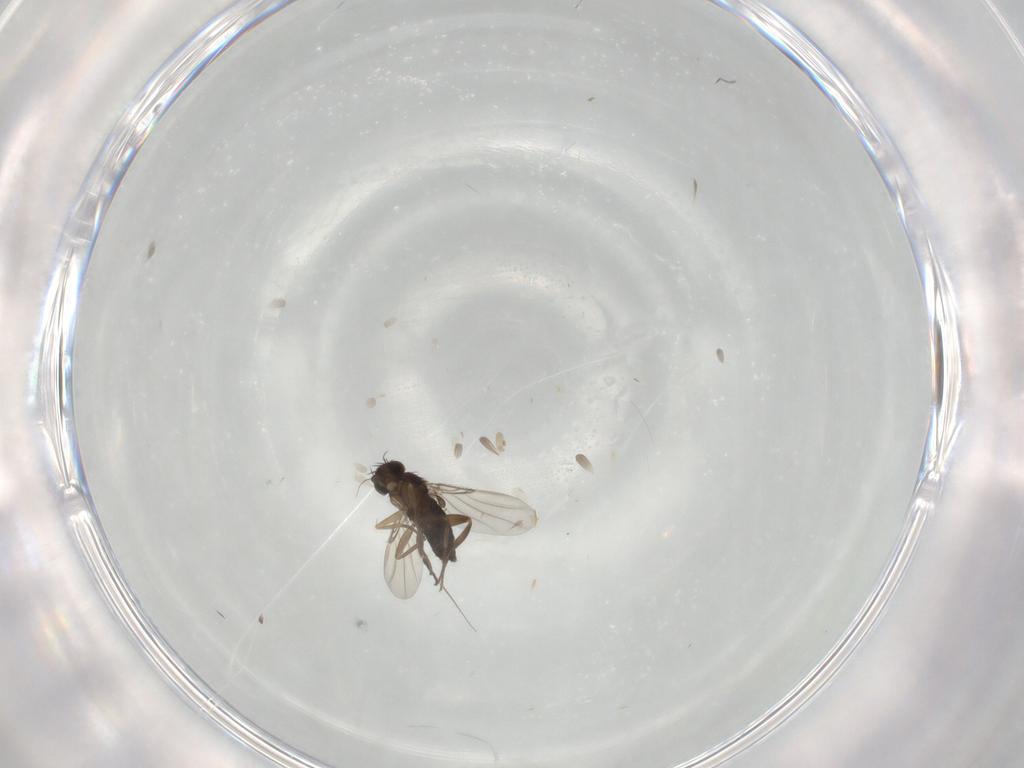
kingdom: Animalia
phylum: Arthropoda
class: Insecta
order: Diptera
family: Phoridae
